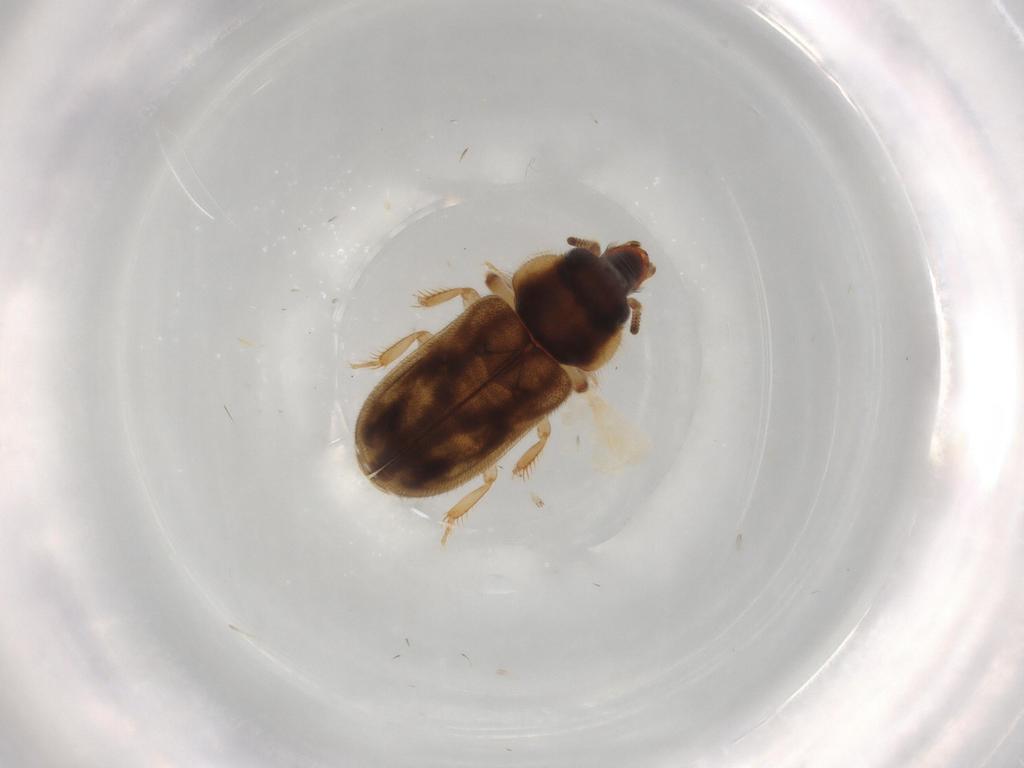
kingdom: Animalia
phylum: Arthropoda
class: Insecta
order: Coleoptera
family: Heteroceridae
